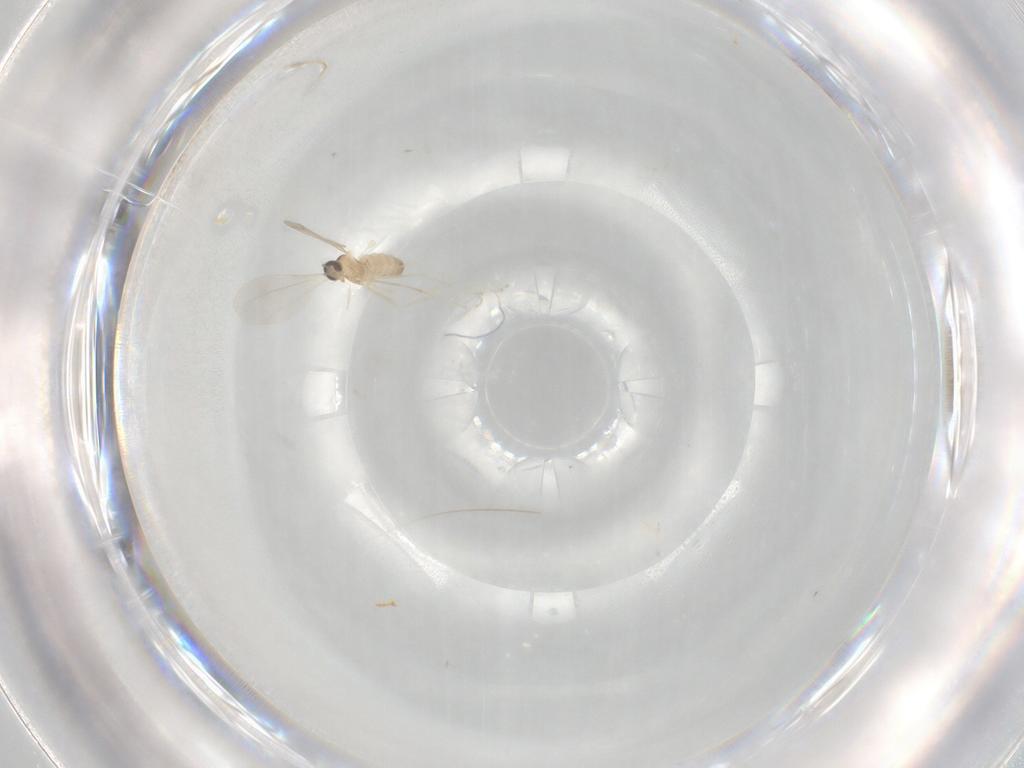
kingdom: Animalia
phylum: Arthropoda
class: Insecta
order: Diptera
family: Cecidomyiidae
